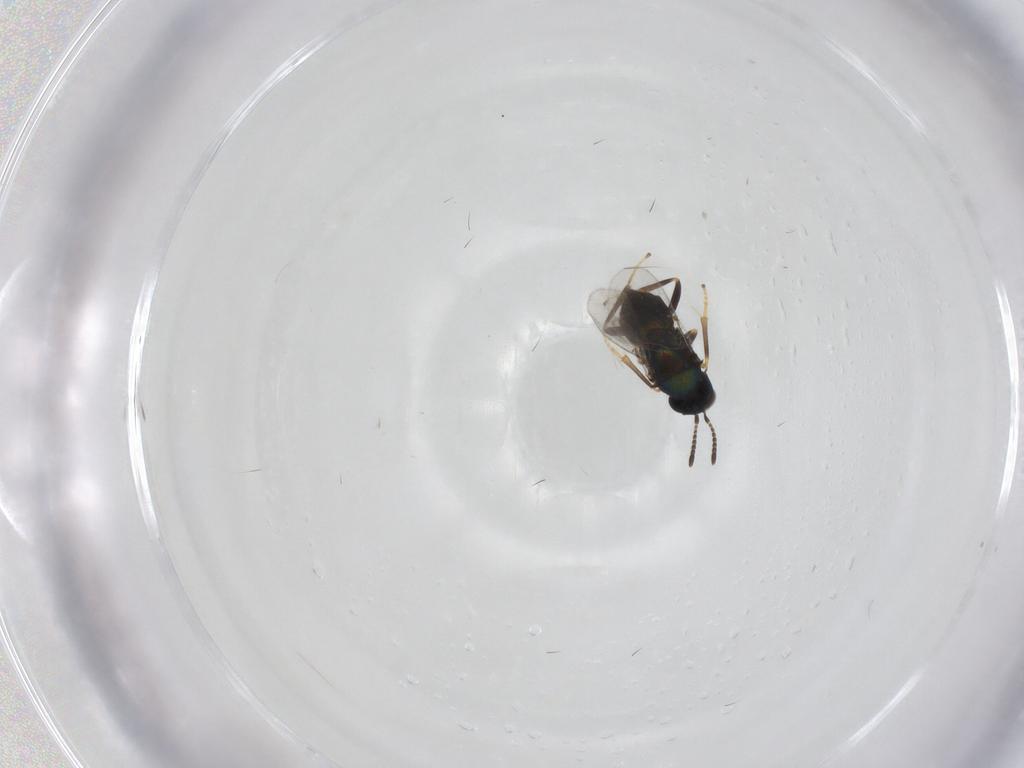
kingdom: Animalia
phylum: Arthropoda
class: Insecta
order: Hymenoptera
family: Encyrtidae
